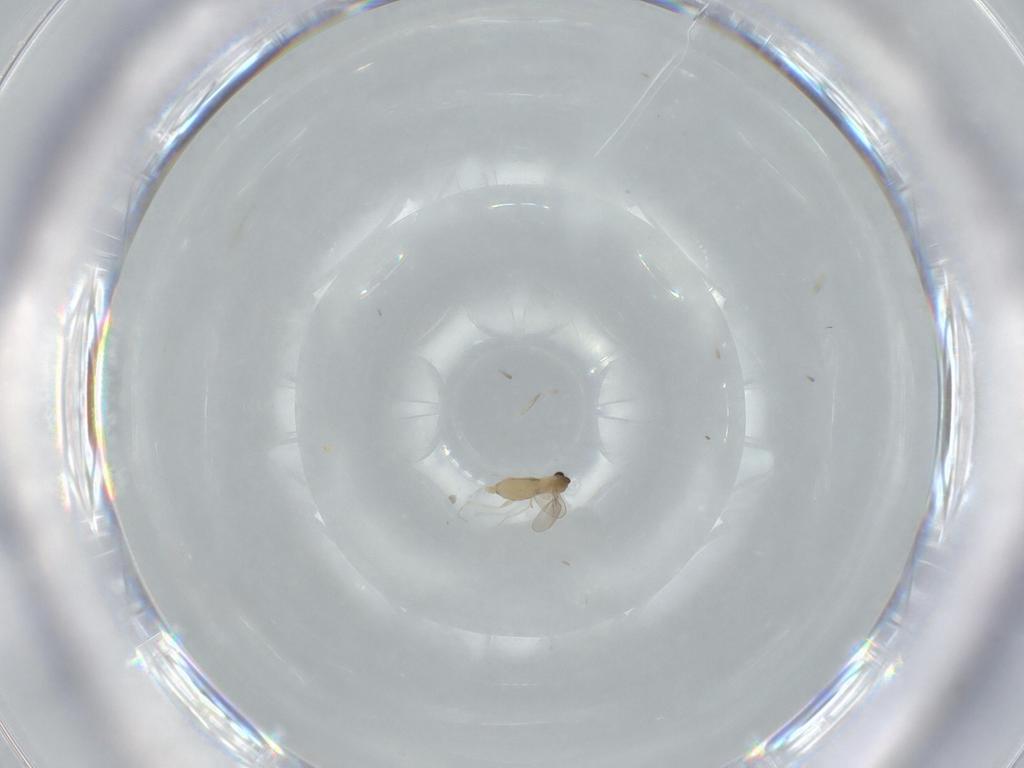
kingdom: Animalia
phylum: Arthropoda
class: Insecta
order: Diptera
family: Cecidomyiidae
